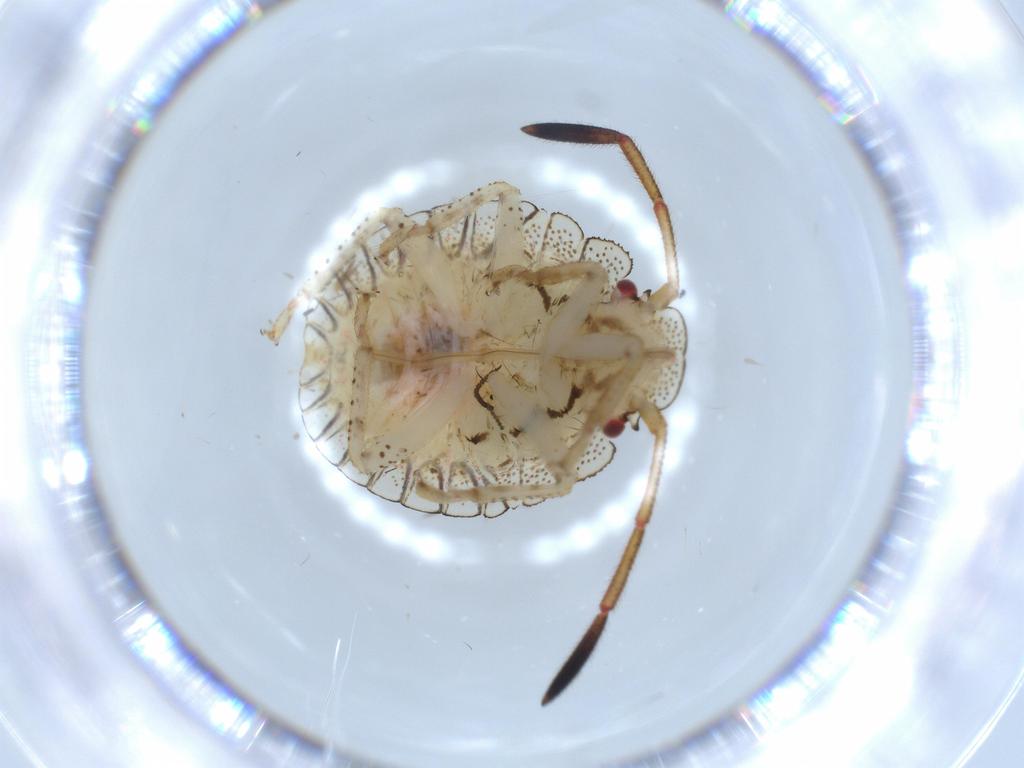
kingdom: Animalia
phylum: Arthropoda
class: Insecta
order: Hemiptera
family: Pentatomidae
